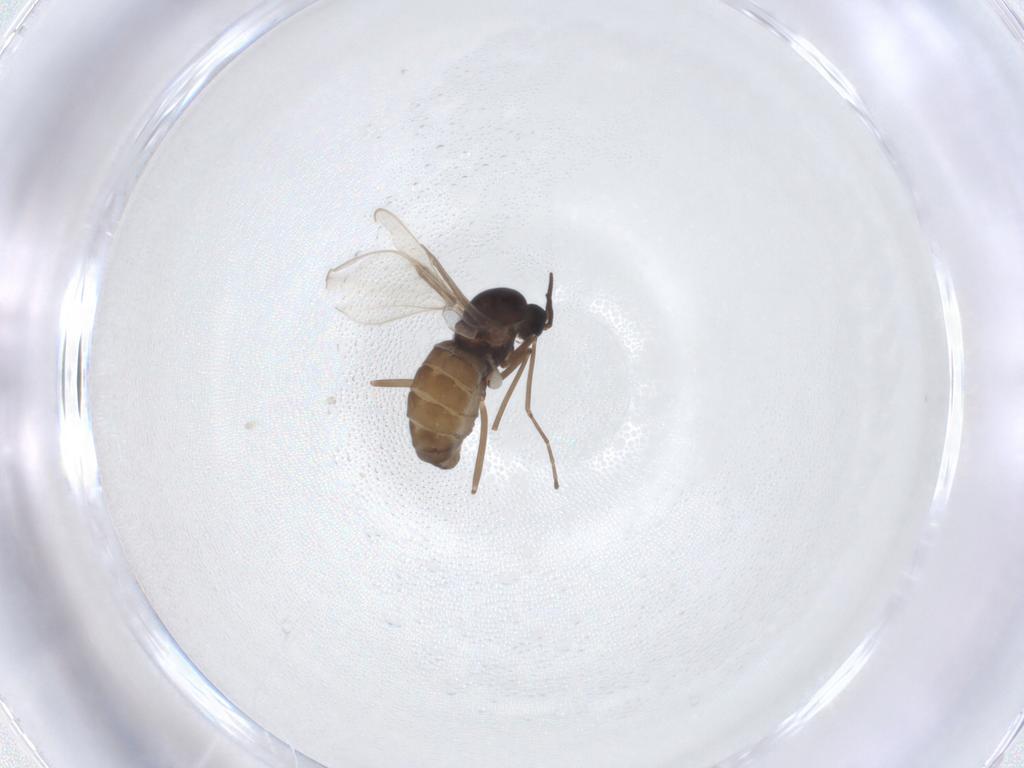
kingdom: Animalia
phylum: Arthropoda
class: Insecta
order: Diptera
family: Cecidomyiidae
